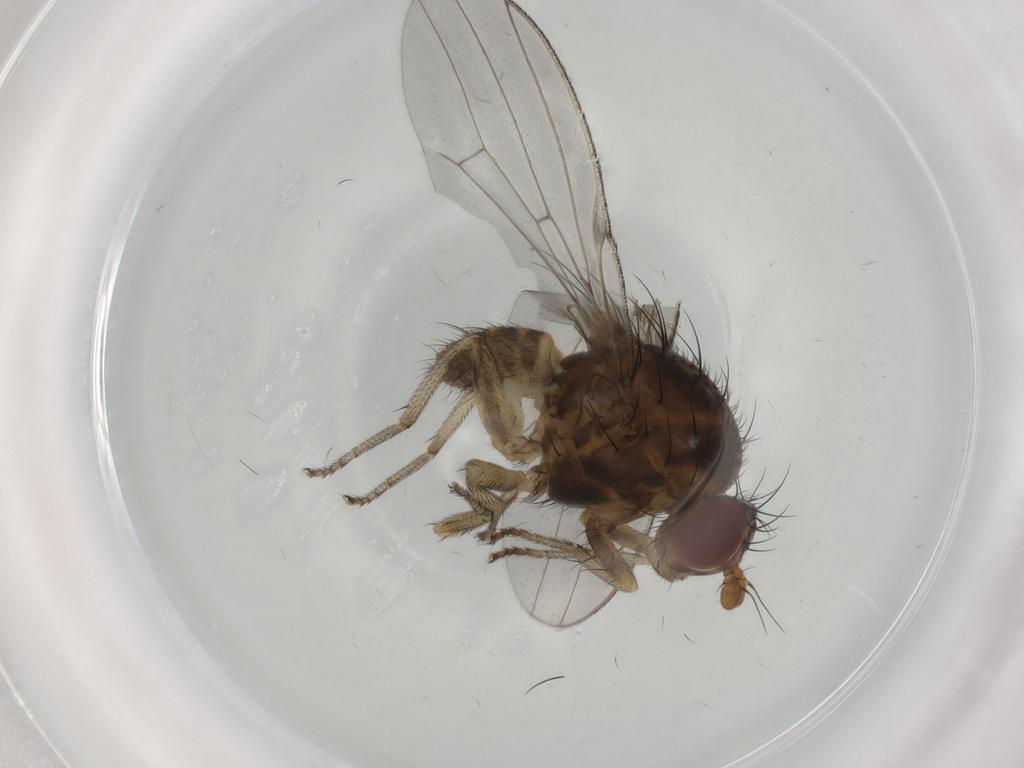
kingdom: Animalia
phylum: Arthropoda
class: Insecta
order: Diptera
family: Lauxaniidae
